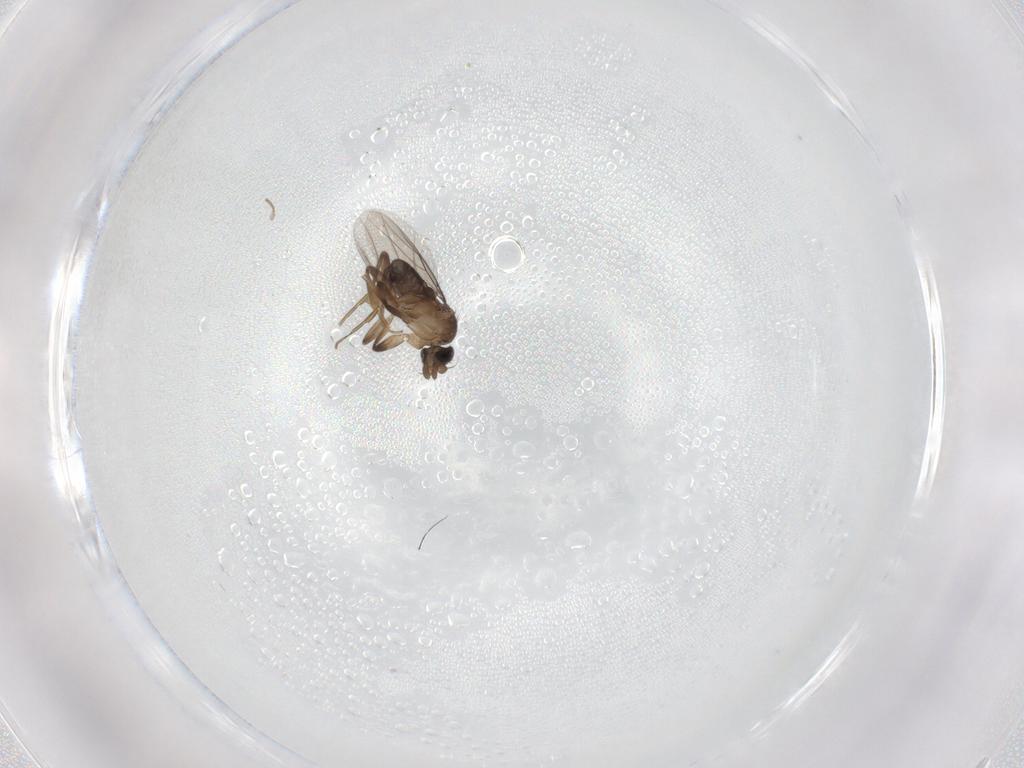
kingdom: Animalia
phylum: Arthropoda
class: Insecta
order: Diptera
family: Phoridae
